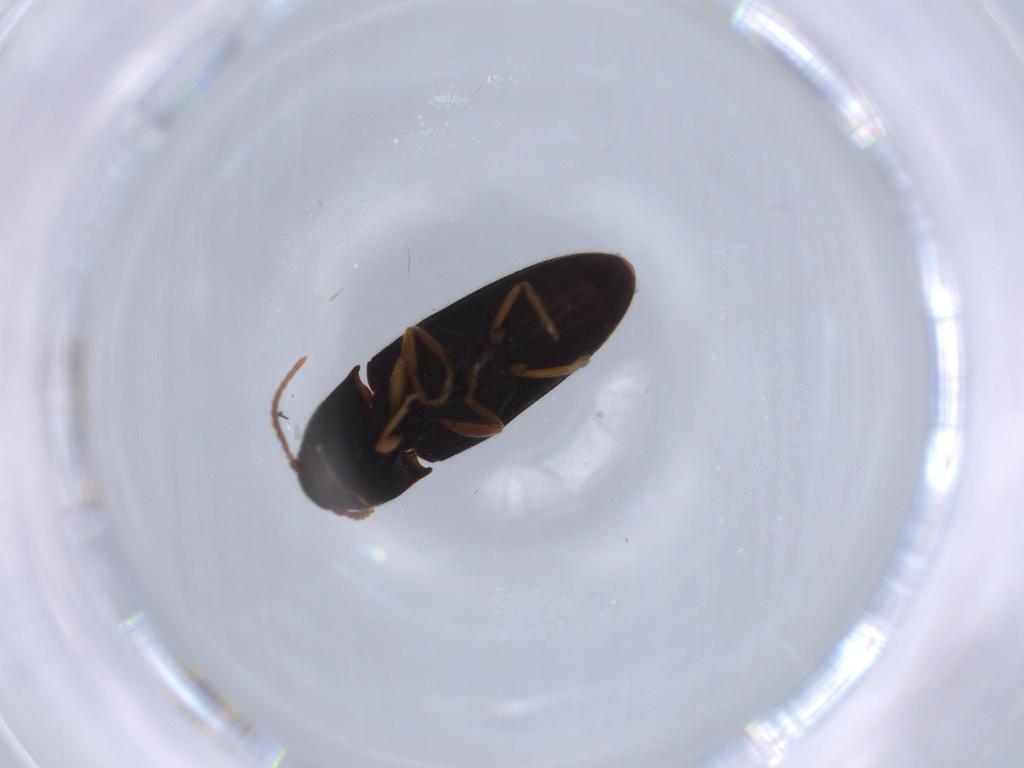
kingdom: Animalia
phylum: Arthropoda
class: Insecta
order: Coleoptera
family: Elateridae
